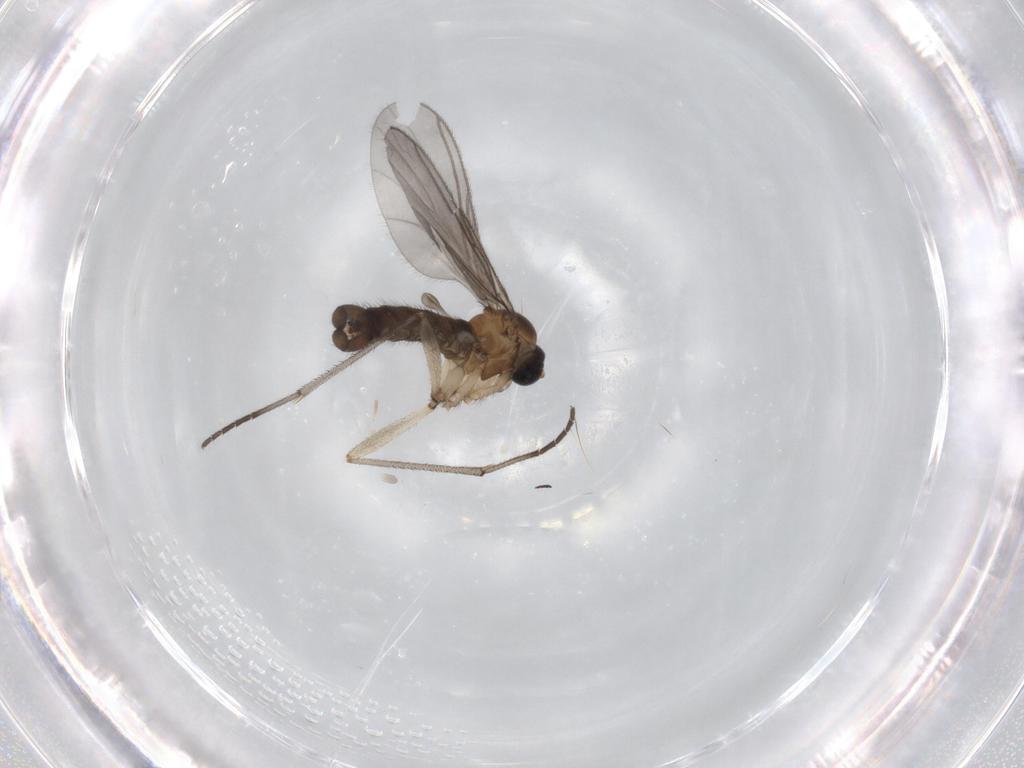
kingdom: Animalia
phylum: Arthropoda
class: Insecta
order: Diptera
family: Sciaridae
